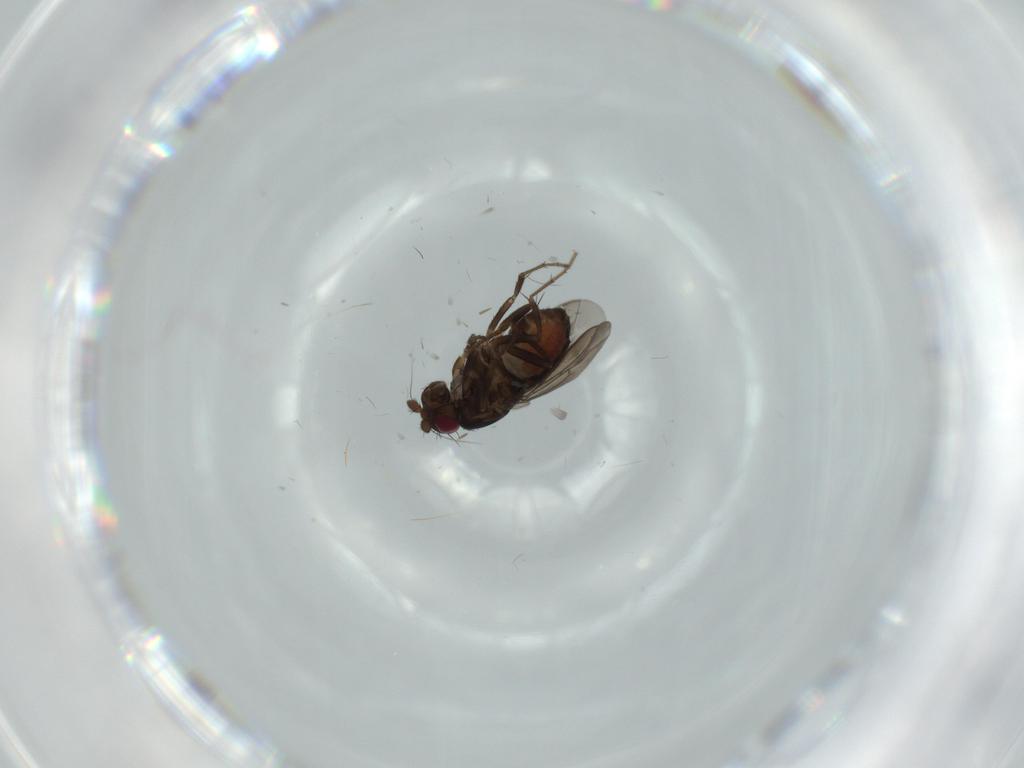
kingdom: Animalia
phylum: Arthropoda
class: Insecta
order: Diptera
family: Sphaeroceridae
